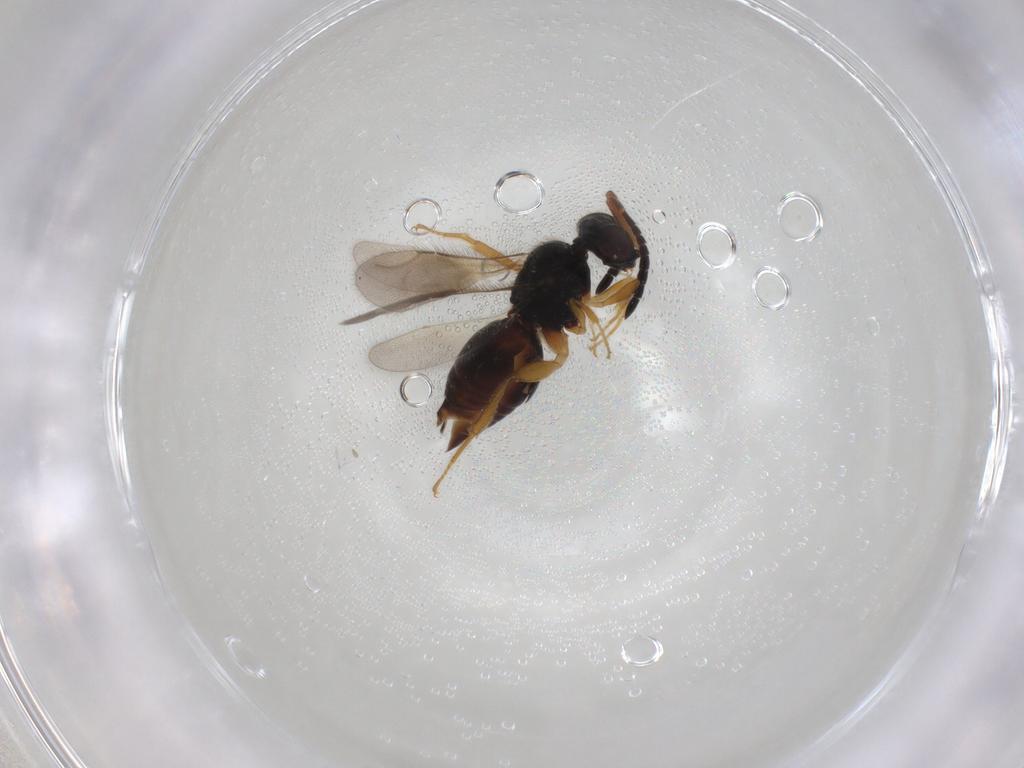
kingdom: Animalia
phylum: Arthropoda
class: Insecta
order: Hymenoptera
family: Ceraphronidae
